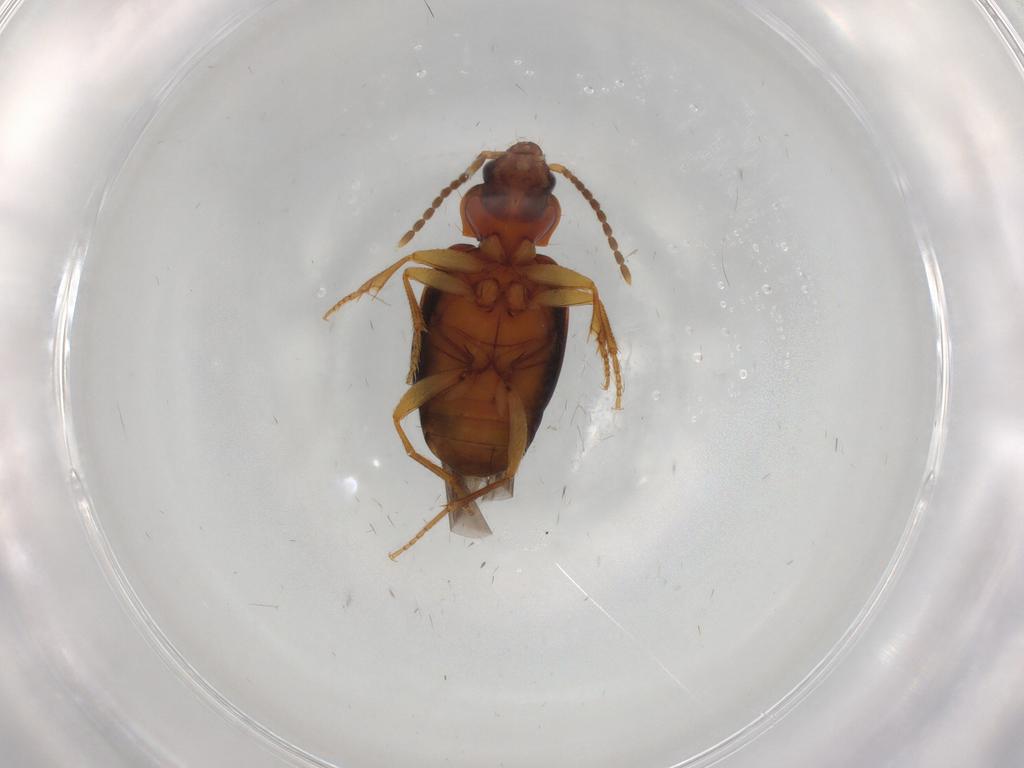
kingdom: Animalia
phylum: Arthropoda
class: Insecta
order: Coleoptera
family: Carabidae
